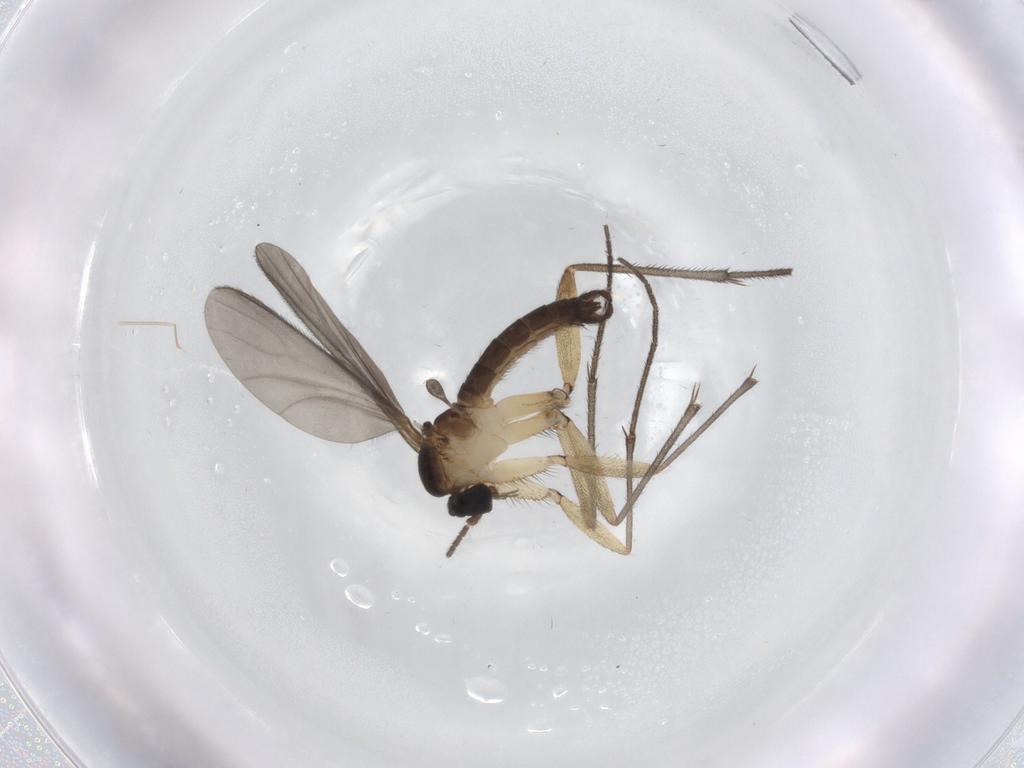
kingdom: Animalia
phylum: Arthropoda
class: Insecta
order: Diptera
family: Sciaridae
